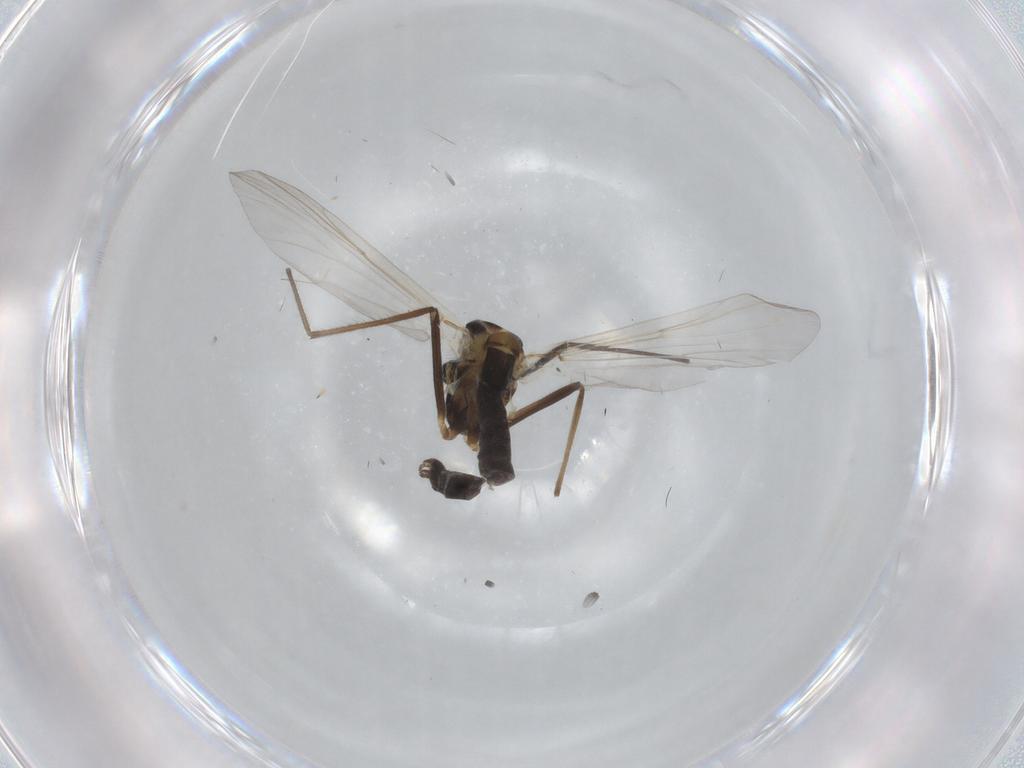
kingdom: Animalia
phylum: Arthropoda
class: Insecta
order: Diptera
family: Chironomidae
